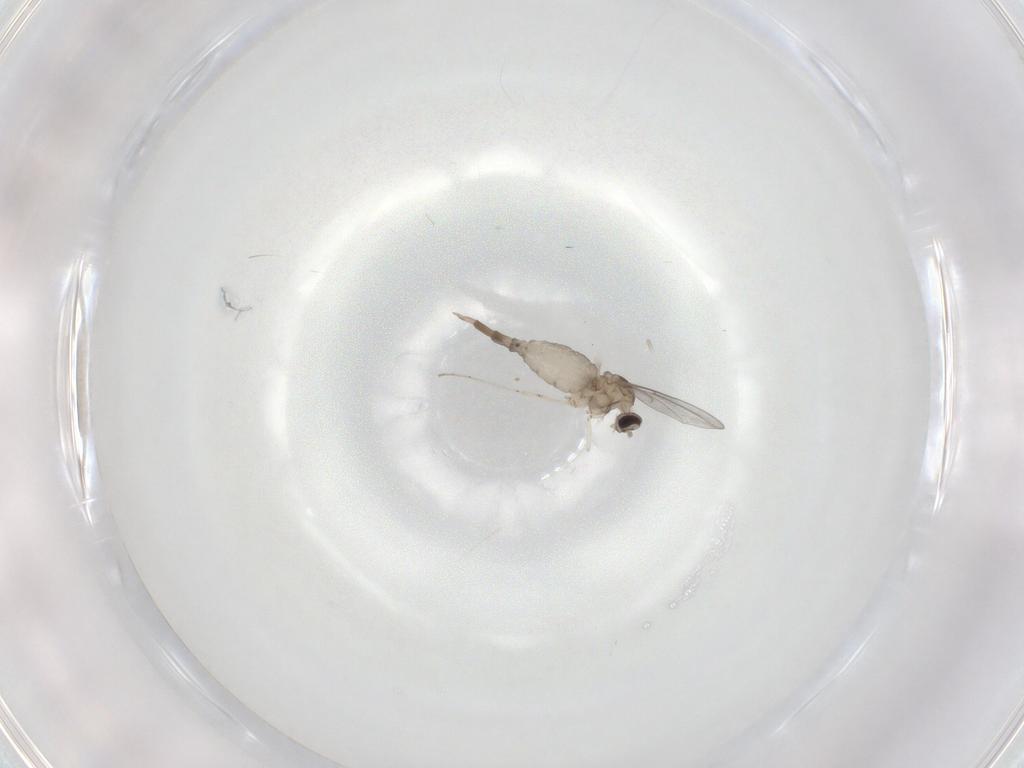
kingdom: Animalia
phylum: Arthropoda
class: Insecta
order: Diptera
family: Cecidomyiidae
